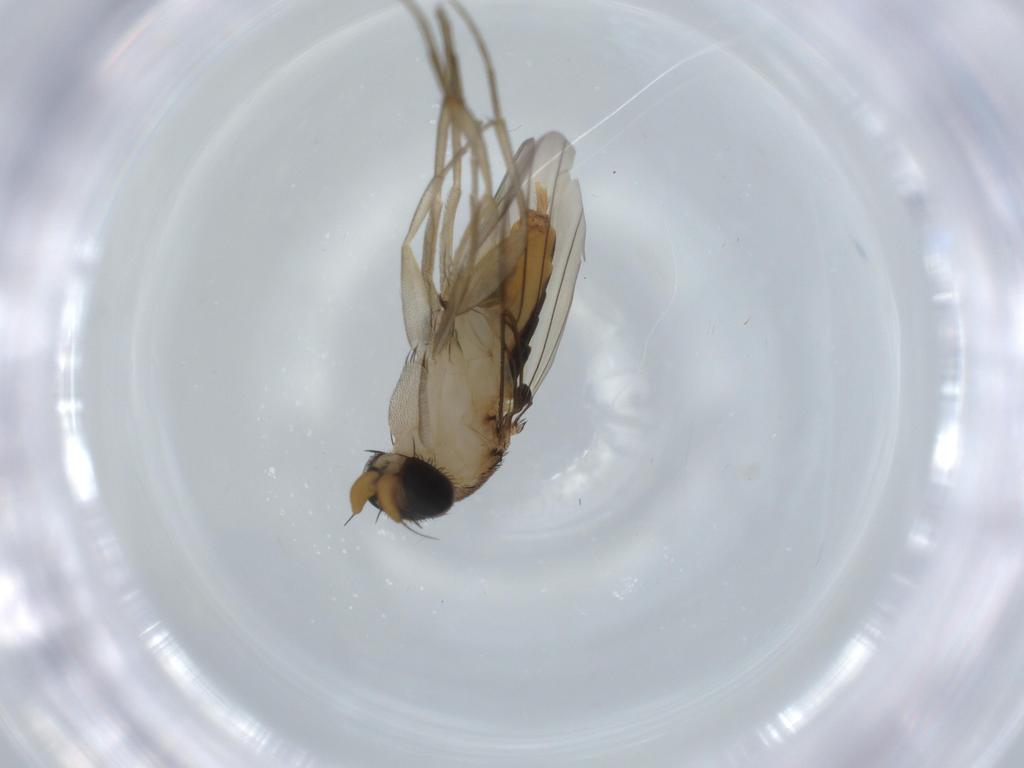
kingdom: Animalia
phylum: Arthropoda
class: Insecta
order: Diptera
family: Phoridae
